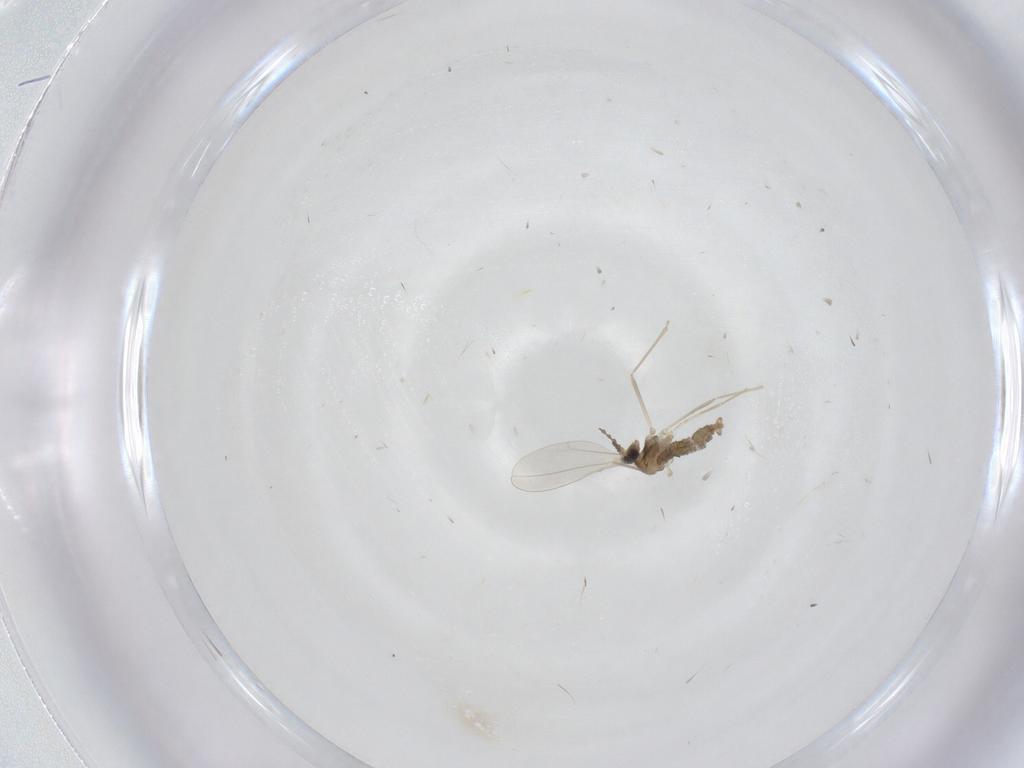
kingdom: Animalia
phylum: Arthropoda
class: Insecta
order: Diptera
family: Cecidomyiidae
